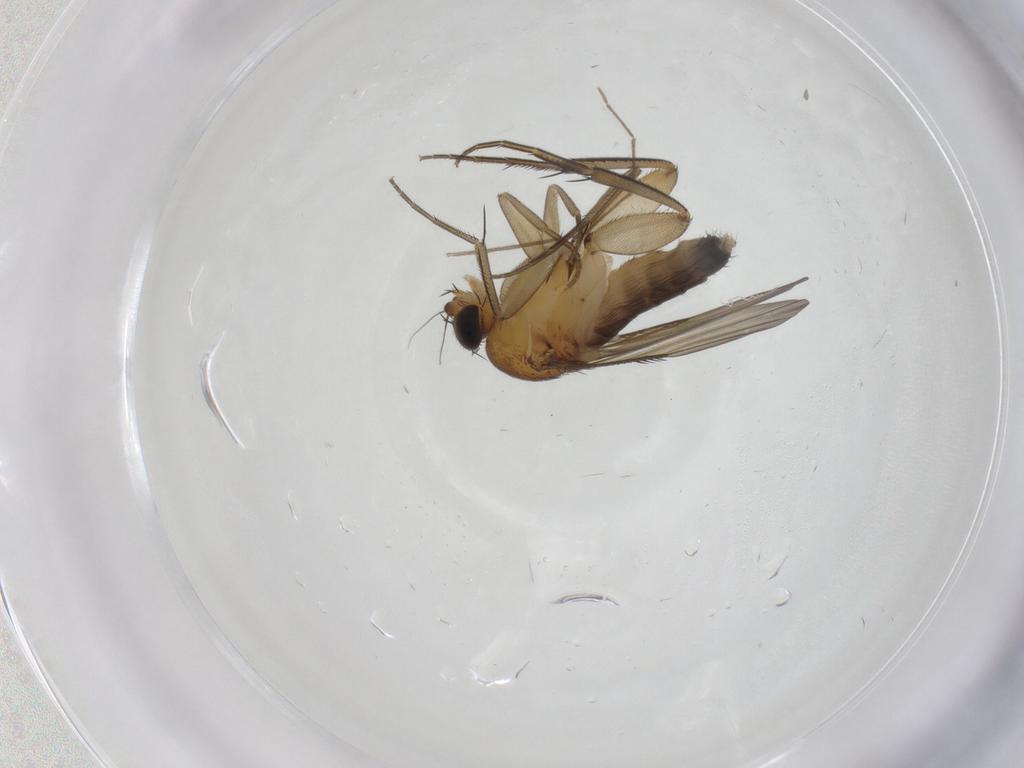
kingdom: Animalia
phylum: Arthropoda
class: Insecta
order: Diptera
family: Phoridae
